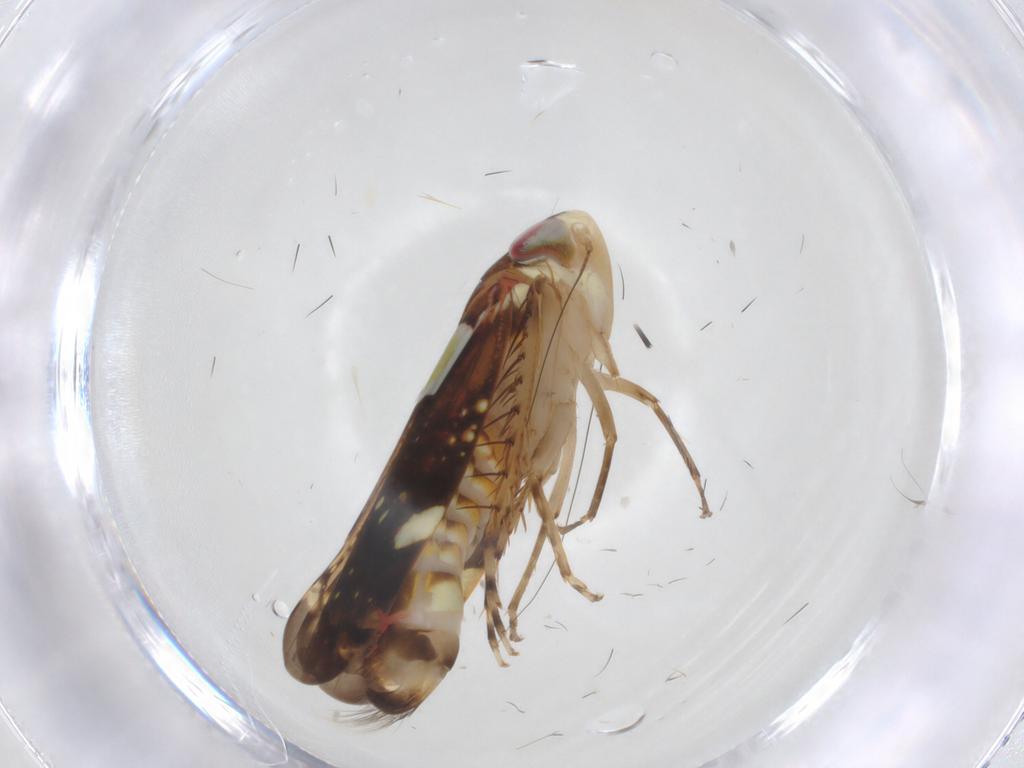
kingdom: Animalia
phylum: Arthropoda
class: Insecta
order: Hemiptera
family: Cicadellidae
